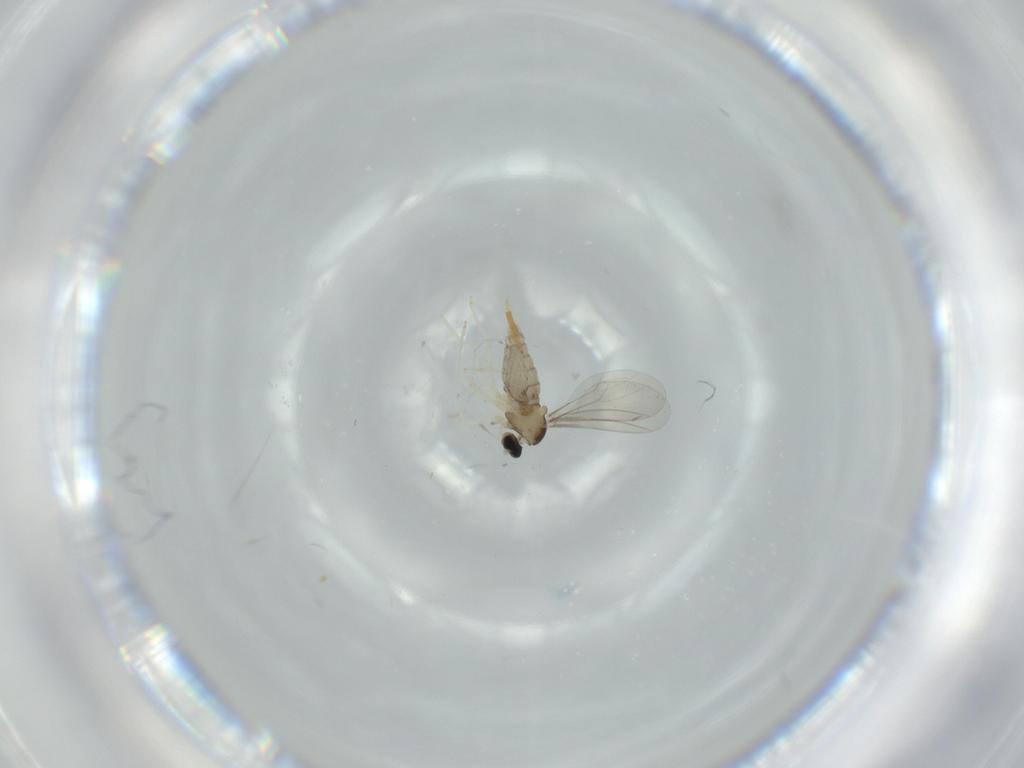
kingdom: Animalia
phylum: Arthropoda
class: Insecta
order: Diptera
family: Cecidomyiidae
